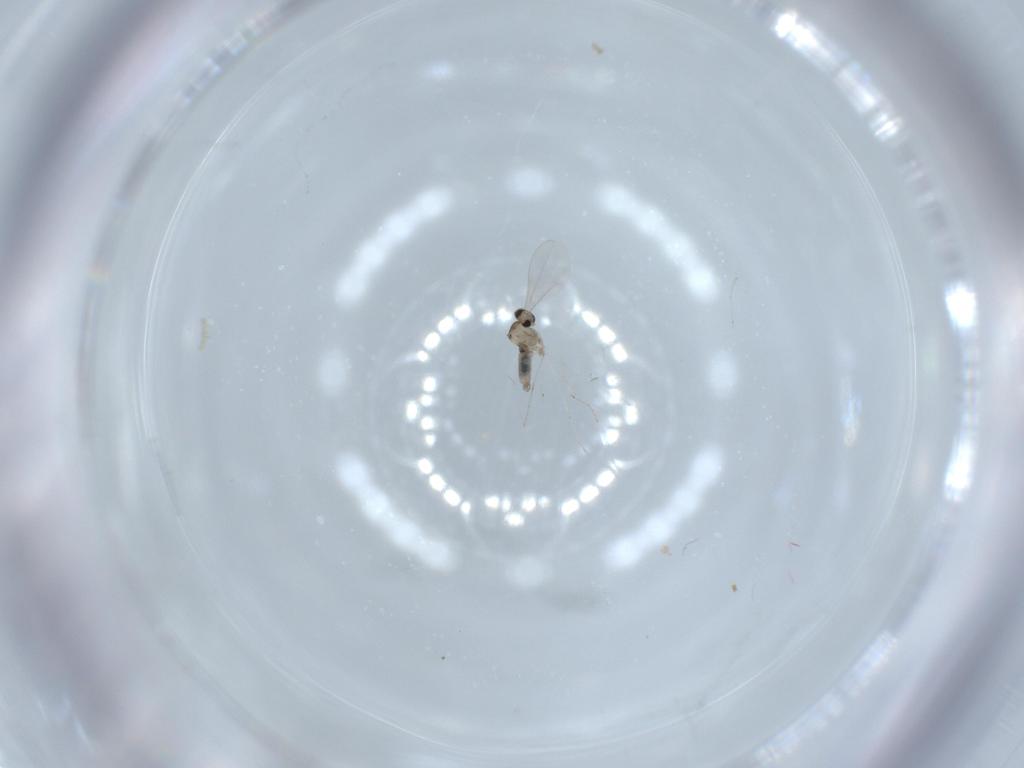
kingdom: Animalia
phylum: Arthropoda
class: Insecta
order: Diptera
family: Cecidomyiidae
